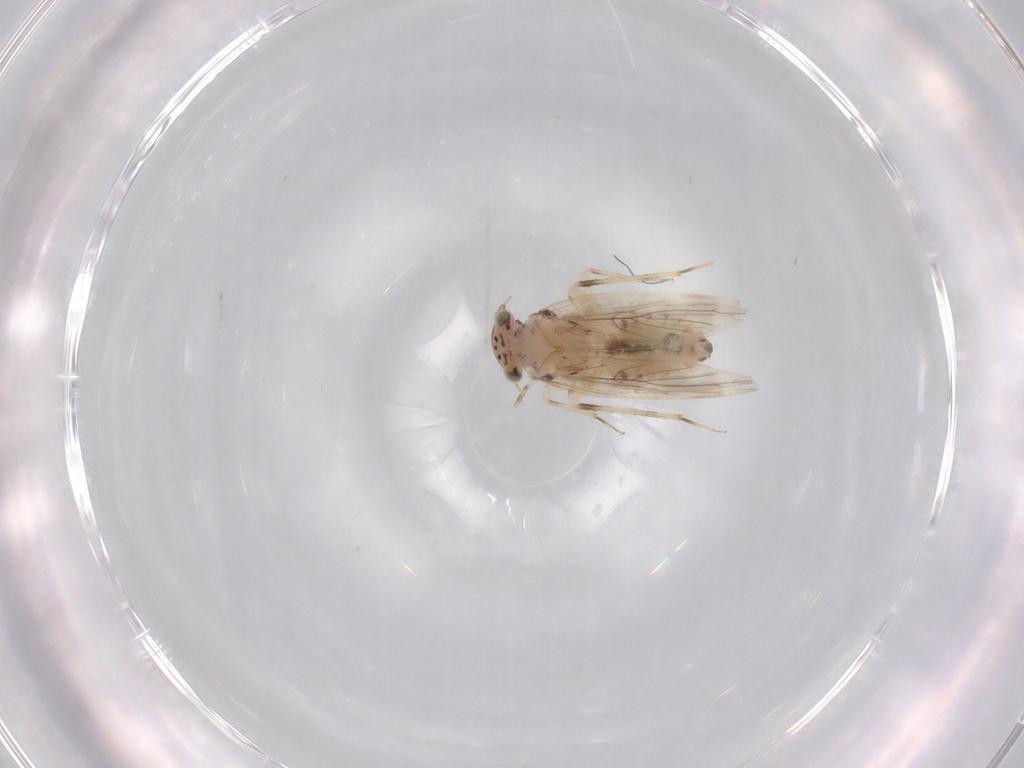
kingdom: Animalia
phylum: Arthropoda
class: Insecta
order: Psocodea
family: Lepidopsocidae
